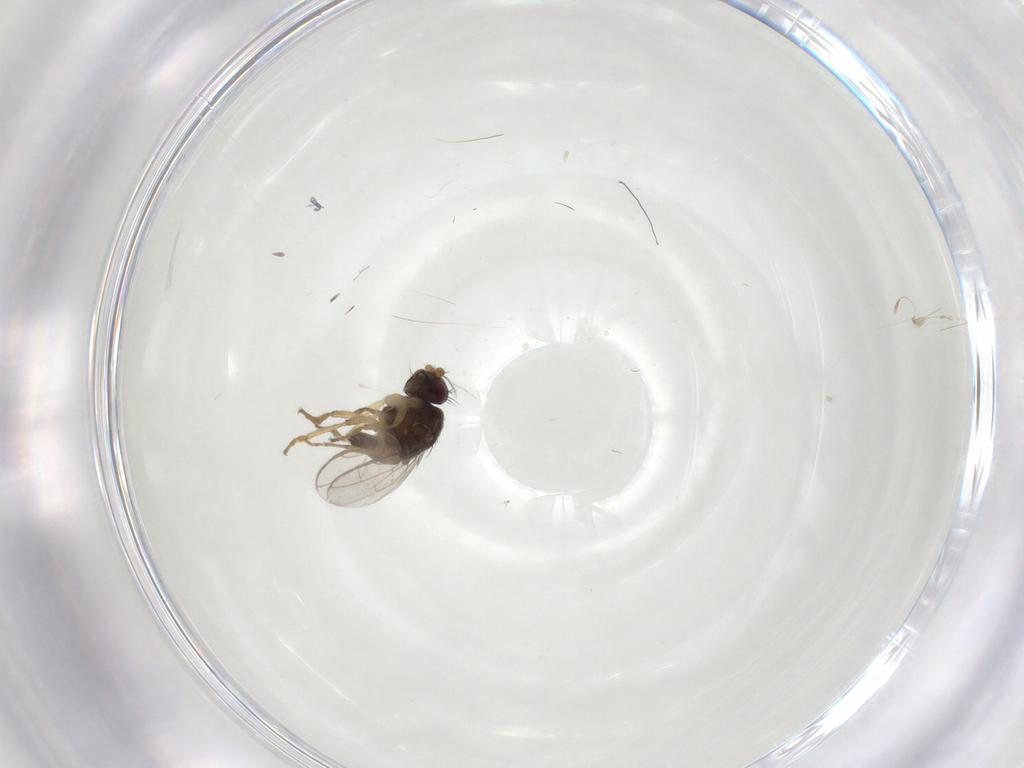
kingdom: Animalia
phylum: Arthropoda
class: Insecta
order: Diptera
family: Sphaeroceridae
